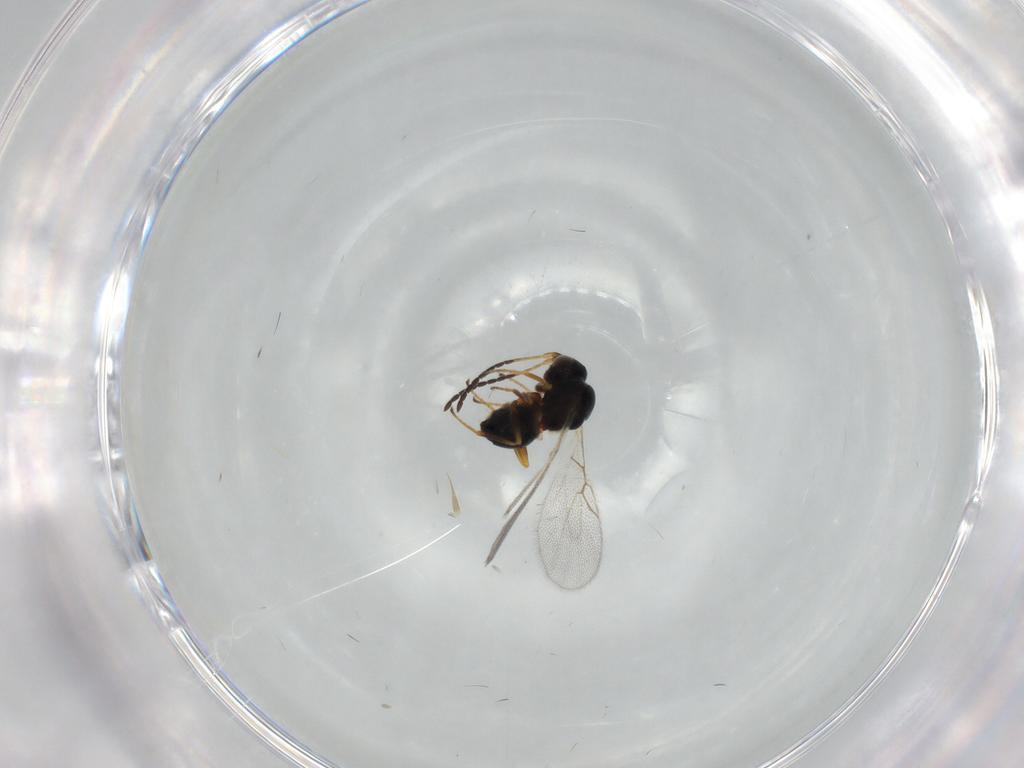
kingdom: Animalia
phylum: Arthropoda
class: Insecta
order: Hymenoptera
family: Figitidae
